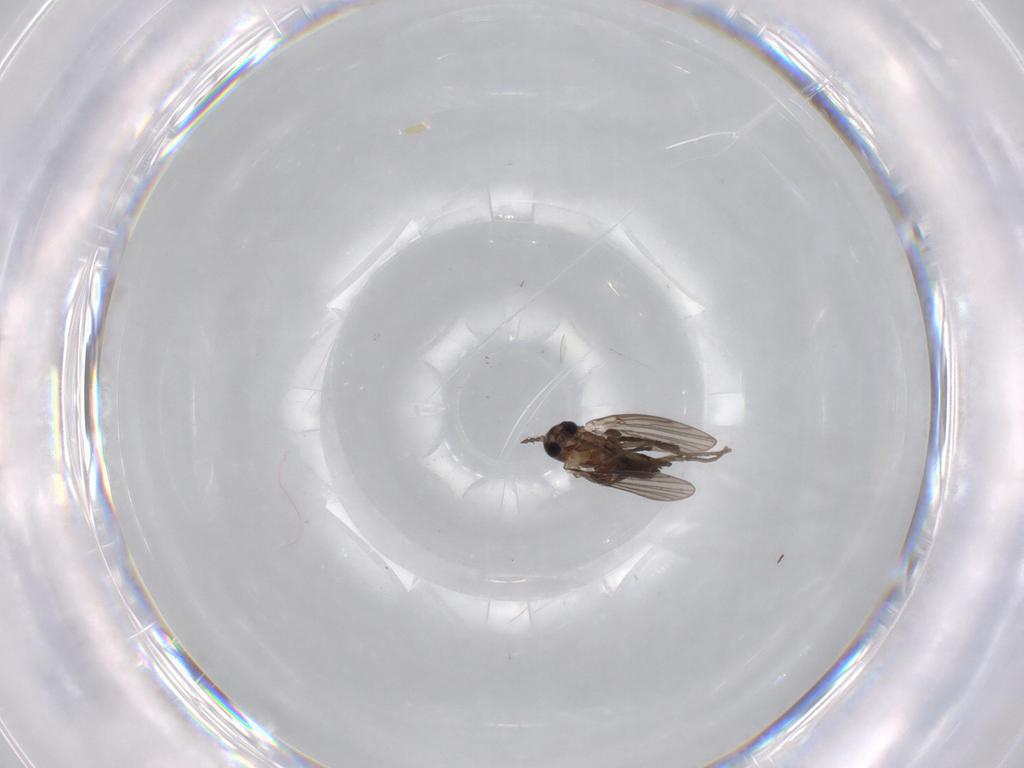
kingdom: Animalia
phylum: Arthropoda
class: Insecta
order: Diptera
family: Psychodidae
